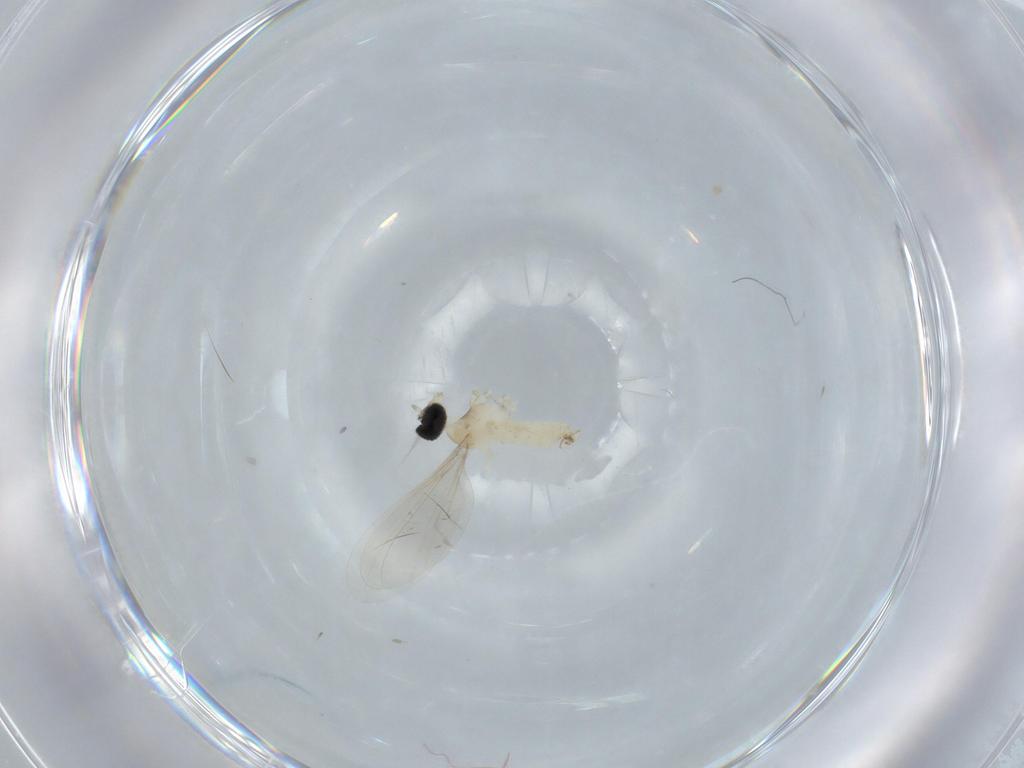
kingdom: Animalia
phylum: Arthropoda
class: Insecta
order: Diptera
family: Cecidomyiidae
